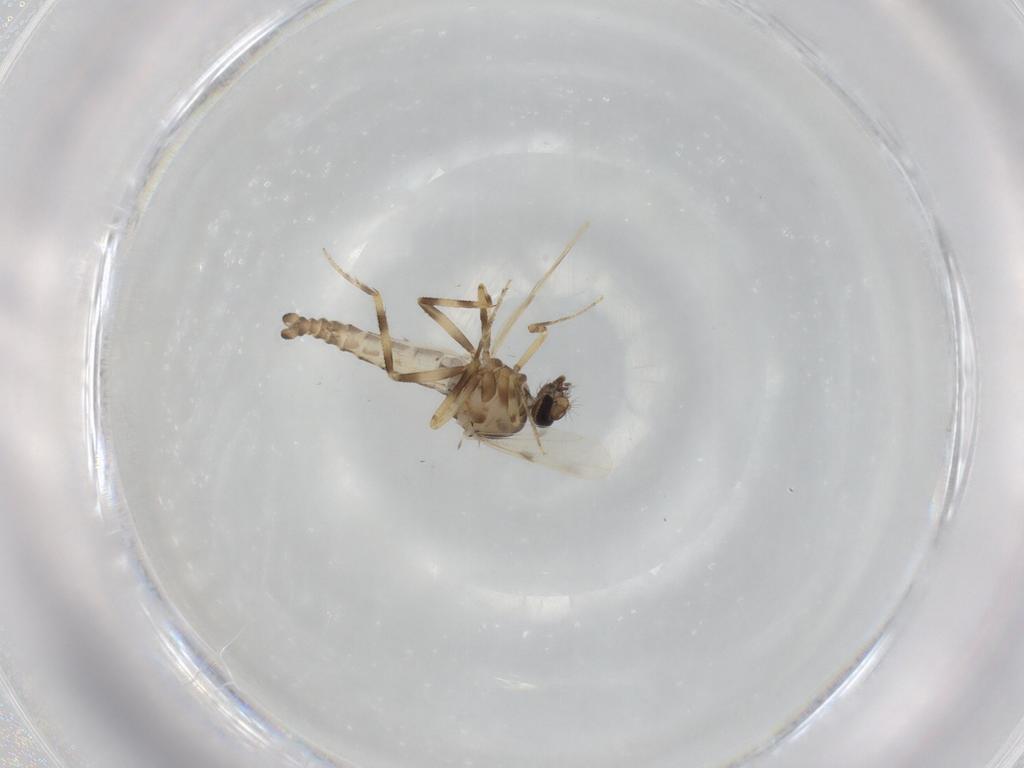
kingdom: Animalia
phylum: Arthropoda
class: Insecta
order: Diptera
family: Ceratopogonidae
